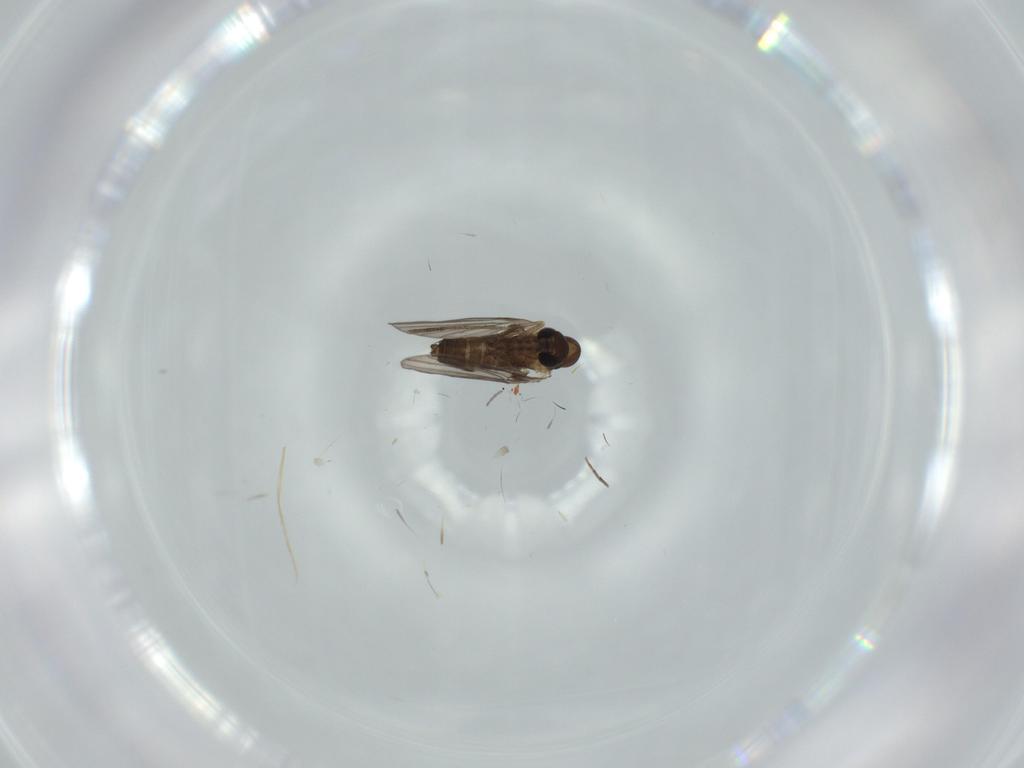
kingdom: Animalia
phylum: Arthropoda
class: Insecta
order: Diptera
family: Cecidomyiidae
